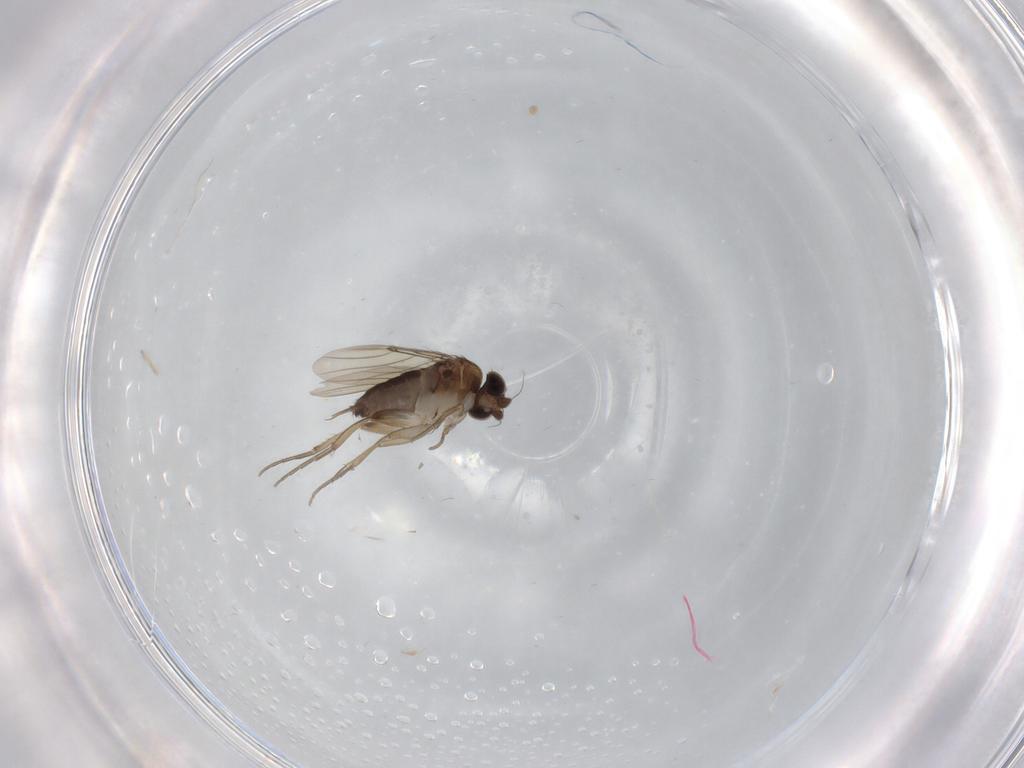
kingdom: Animalia
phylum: Arthropoda
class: Insecta
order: Diptera
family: Phoridae
